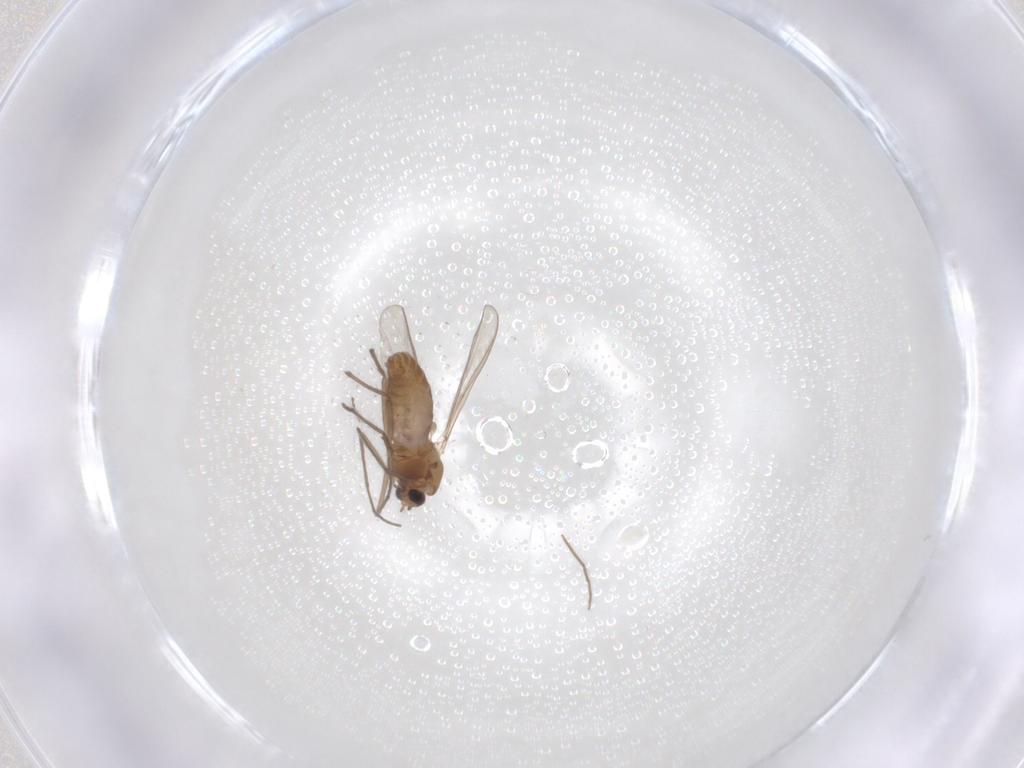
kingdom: Animalia
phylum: Arthropoda
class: Insecta
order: Diptera
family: Chironomidae
